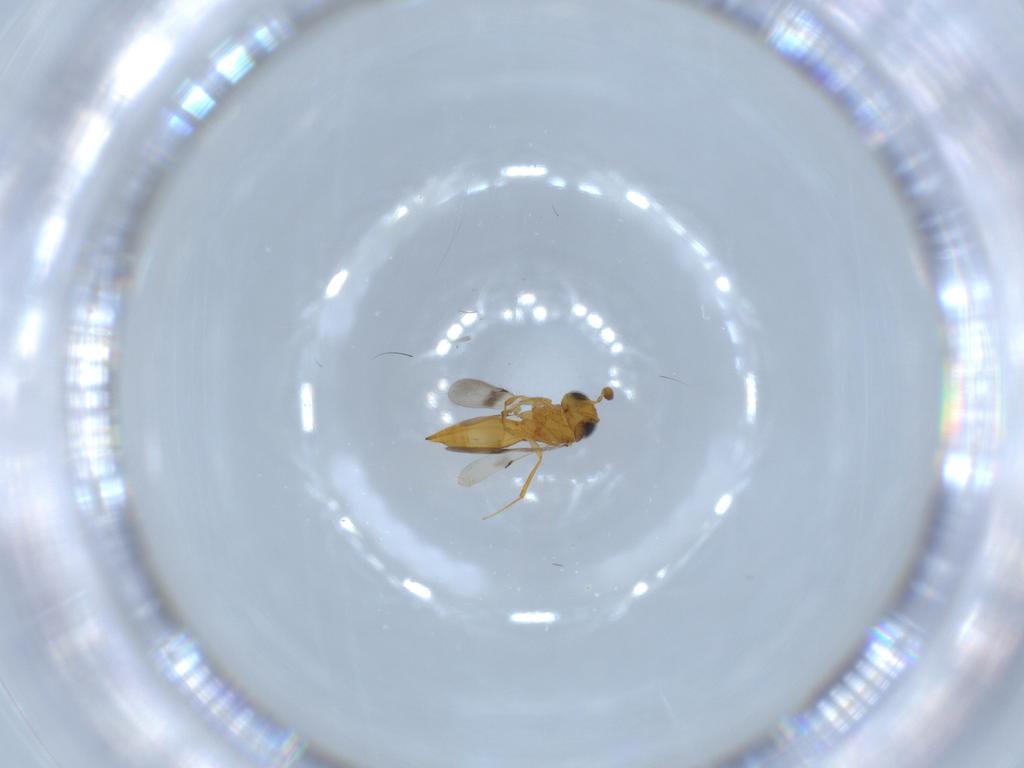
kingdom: Animalia
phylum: Arthropoda
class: Insecta
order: Hymenoptera
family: Scelionidae
